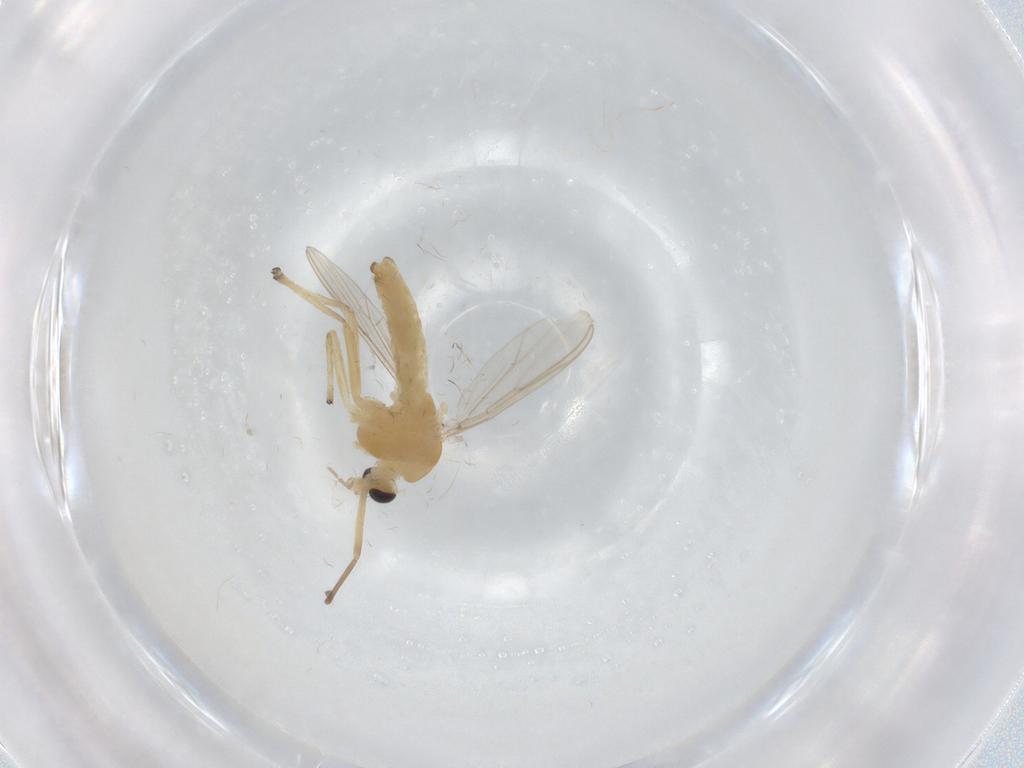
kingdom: Animalia
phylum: Arthropoda
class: Insecta
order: Diptera
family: Chironomidae
